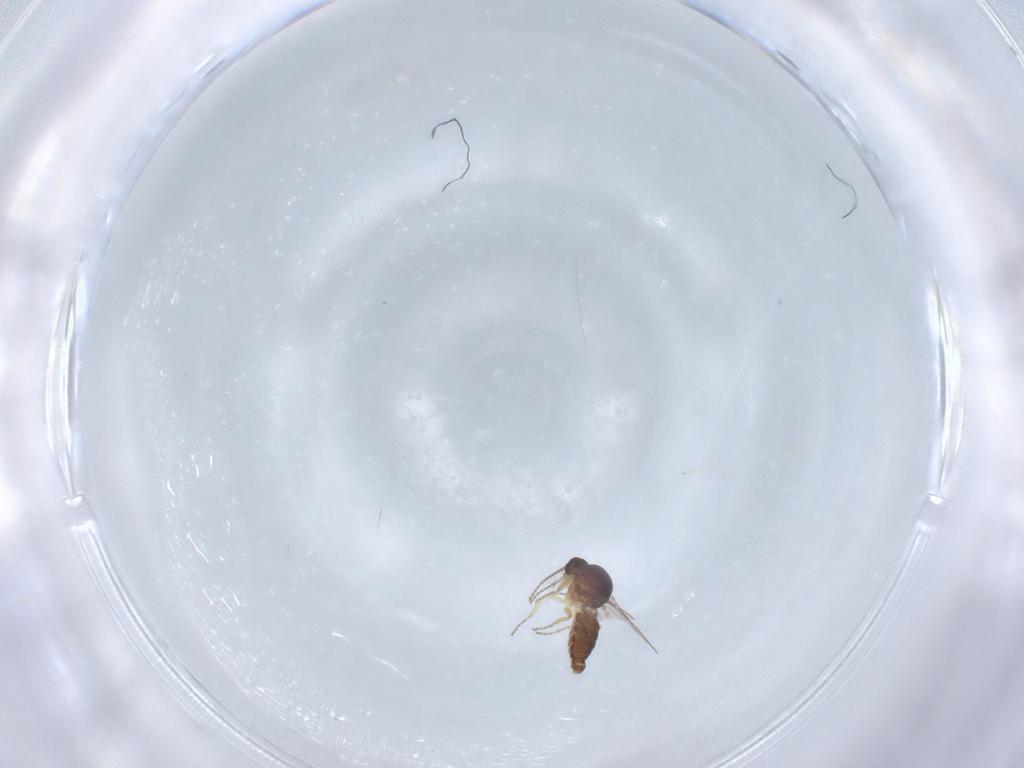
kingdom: Animalia
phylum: Arthropoda
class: Insecta
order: Diptera
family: Ceratopogonidae
